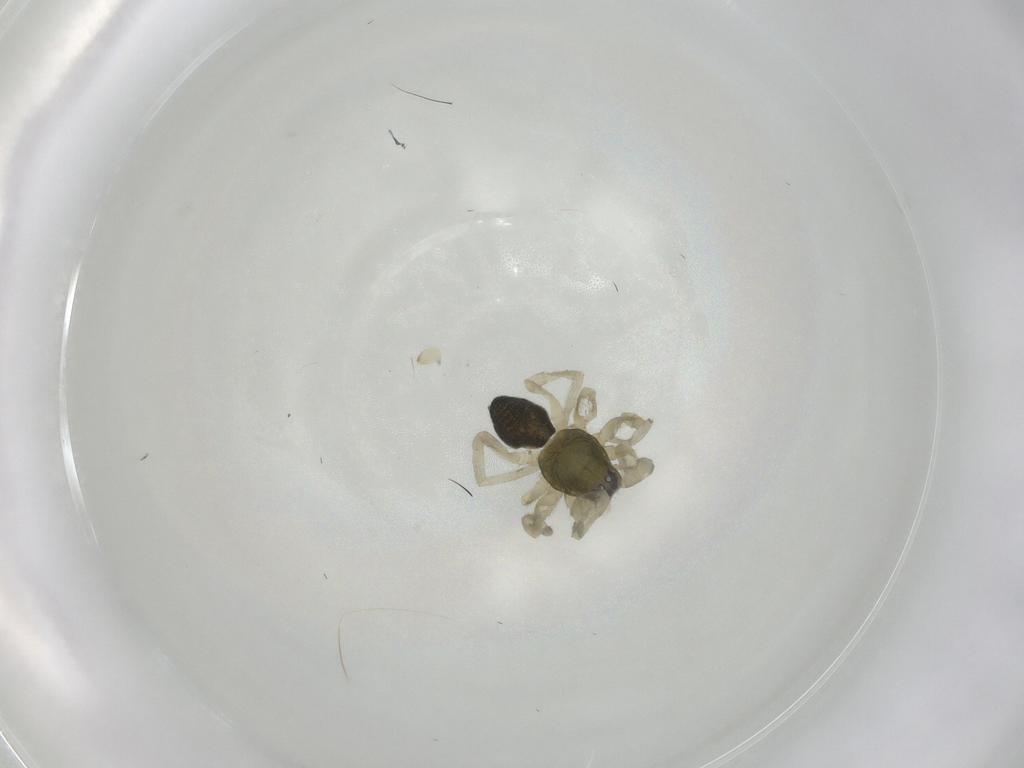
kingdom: Animalia
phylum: Arthropoda
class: Arachnida
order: Araneae
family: Trachelidae
